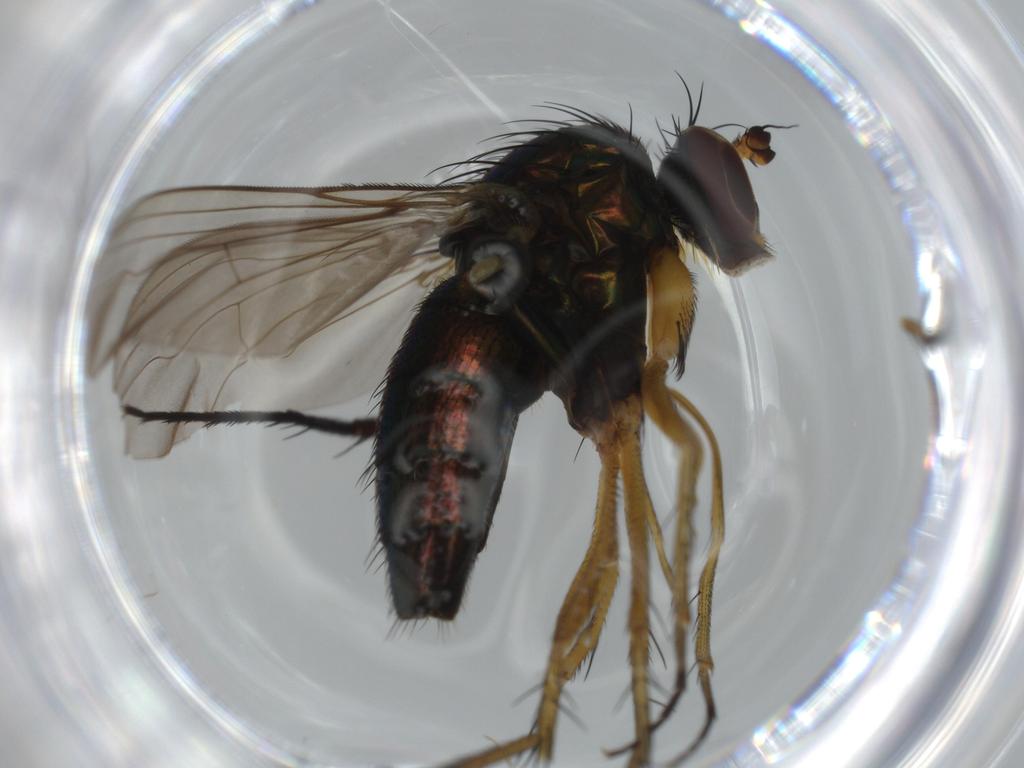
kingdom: Animalia
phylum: Arthropoda
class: Insecta
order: Diptera
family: Dolichopodidae
